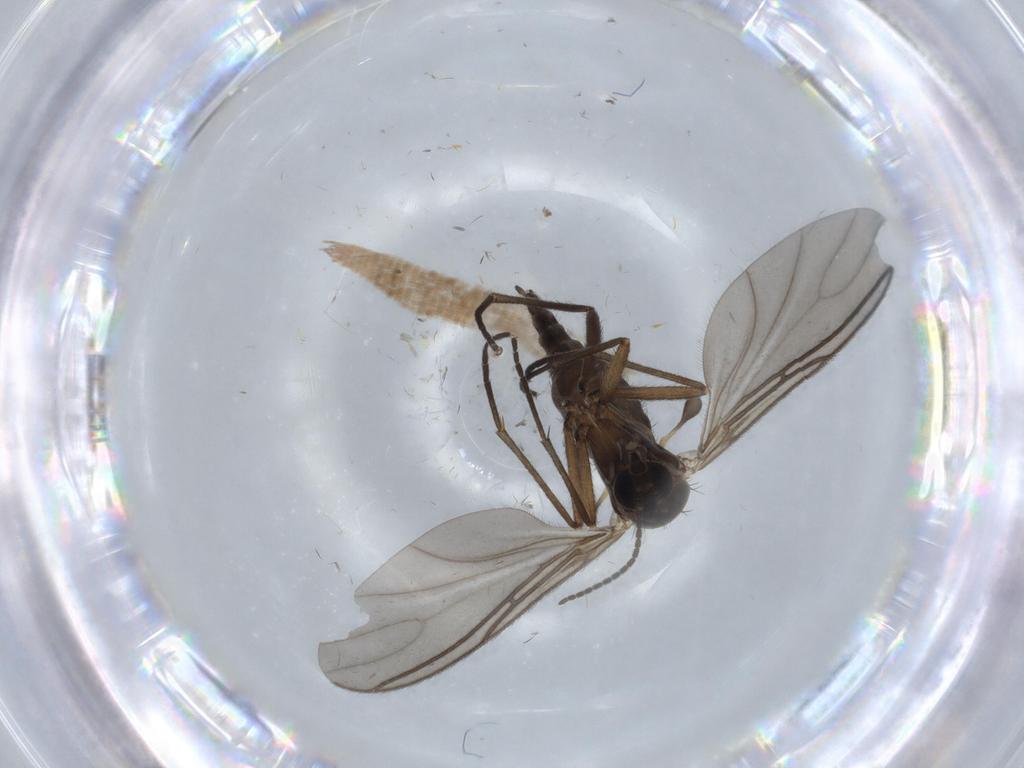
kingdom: Animalia
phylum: Arthropoda
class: Insecta
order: Diptera
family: Sciaridae
